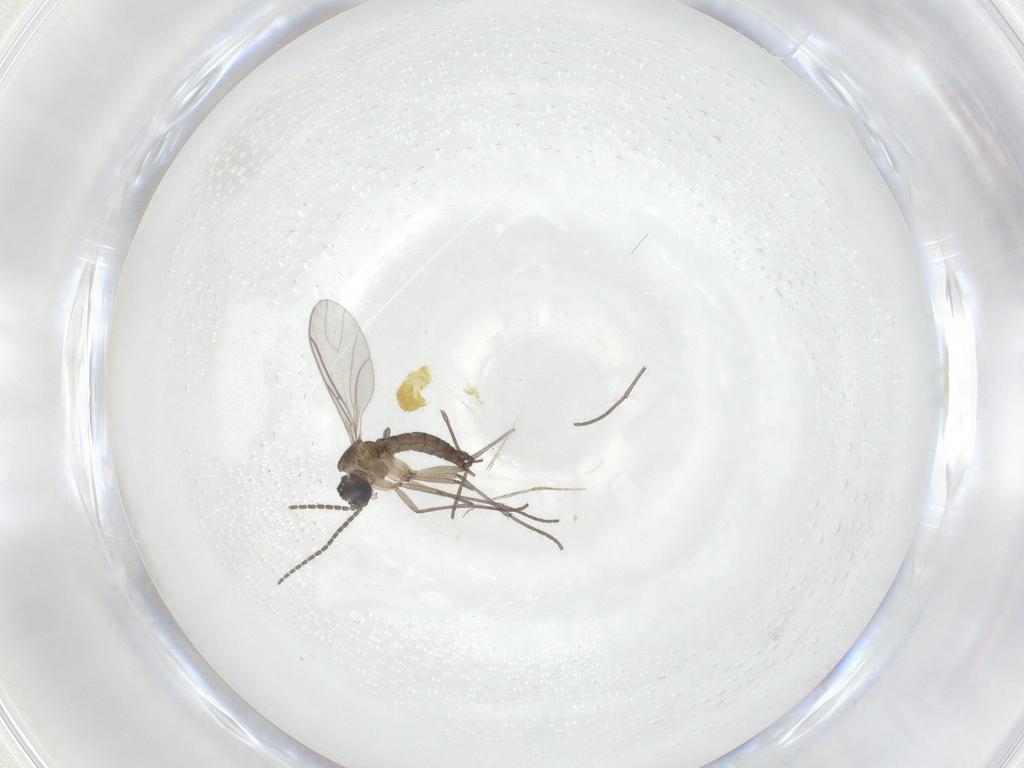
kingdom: Animalia
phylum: Arthropoda
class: Insecta
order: Diptera
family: Sciaridae
